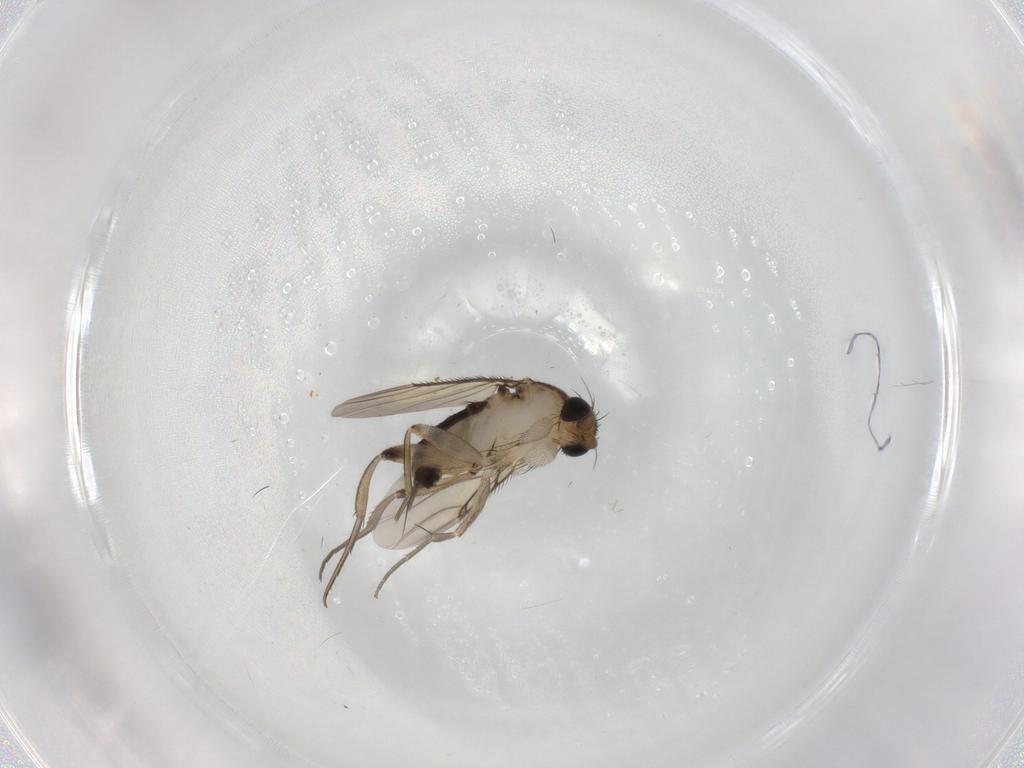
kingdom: Animalia
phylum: Arthropoda
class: Insecta
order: Diptera
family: Phoridae
